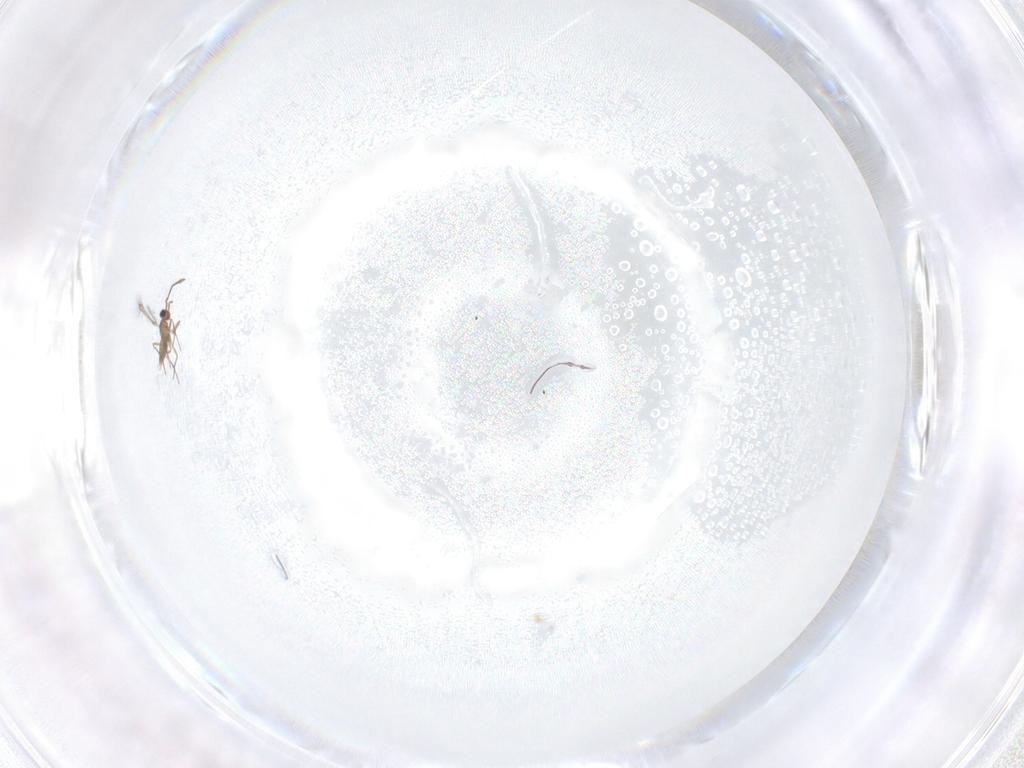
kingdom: Animalia
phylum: Arthropoda
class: Insecta
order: Hymenoptera
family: Mymaridae
